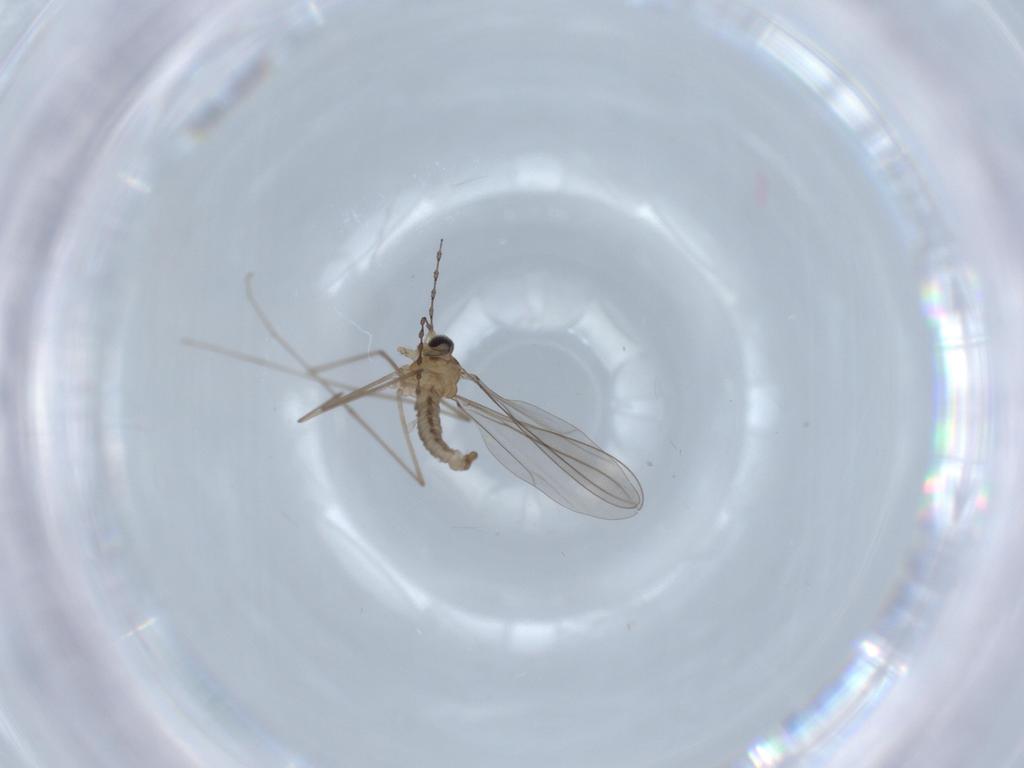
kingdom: Animalia
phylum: Arthropoda
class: Insecta
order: Diptera
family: Cecidomyiidae
